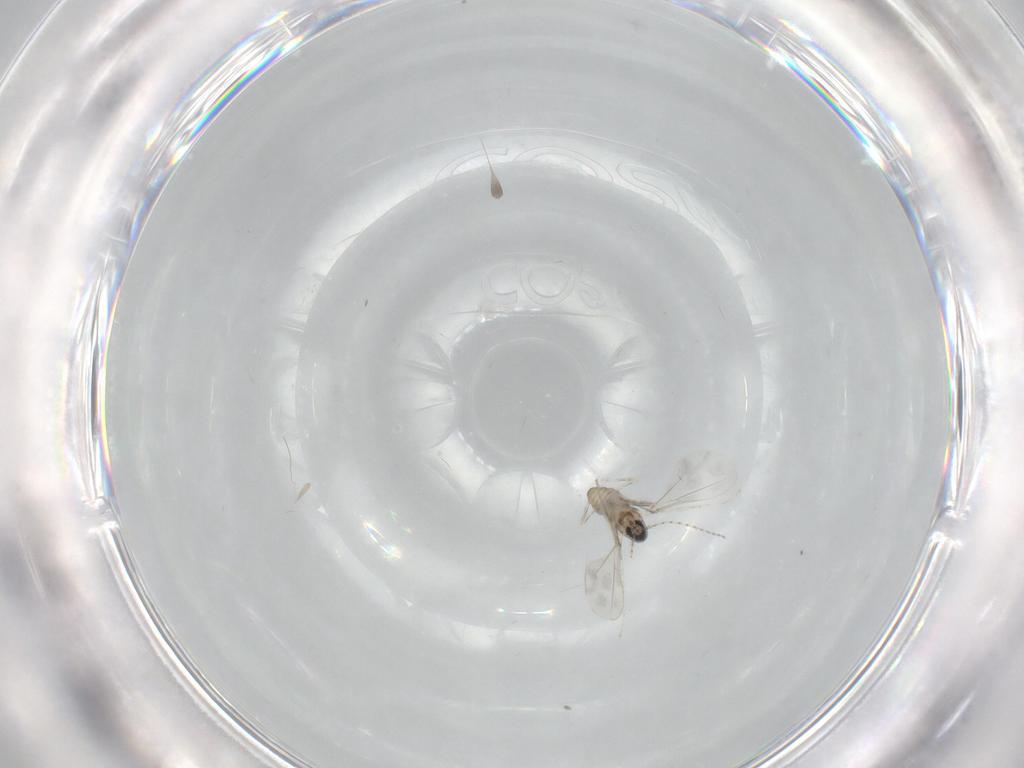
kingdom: Animalia
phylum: Arthropoda
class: Insecta
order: Diptera
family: Cecidomyiidae
